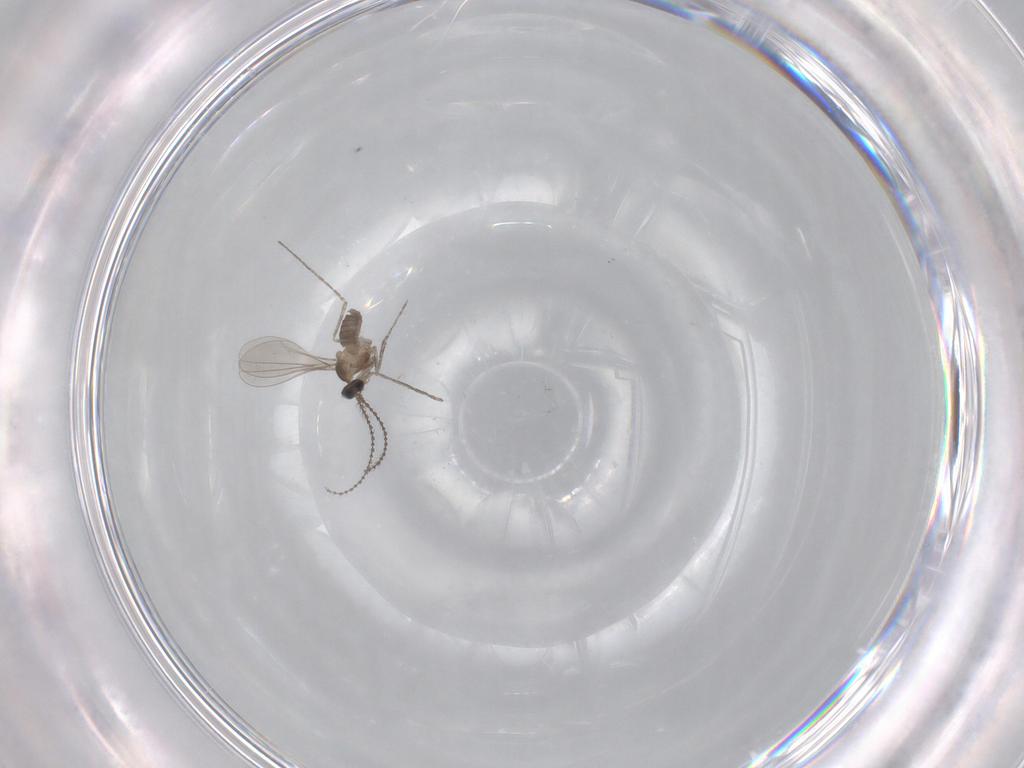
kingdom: Animalia
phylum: Arthropoda
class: Insecta
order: Diptera
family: Cecidomyiidae
